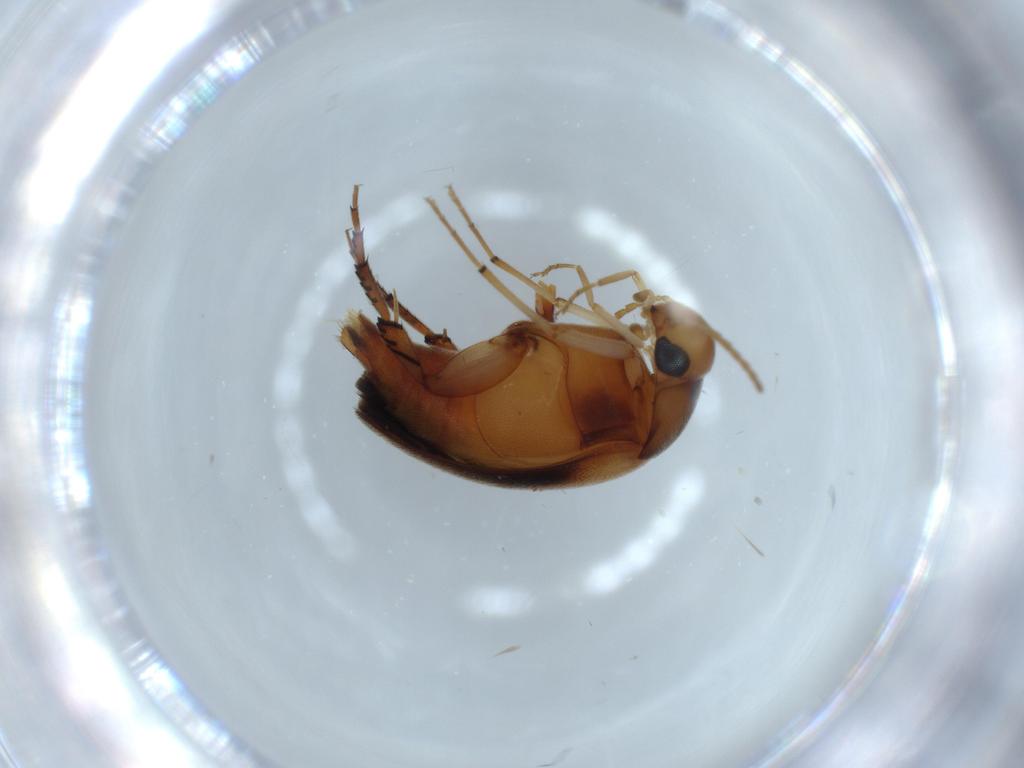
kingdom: Animalia
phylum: Arthropoda
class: Insecta
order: Coleoptera
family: Mordellidae
